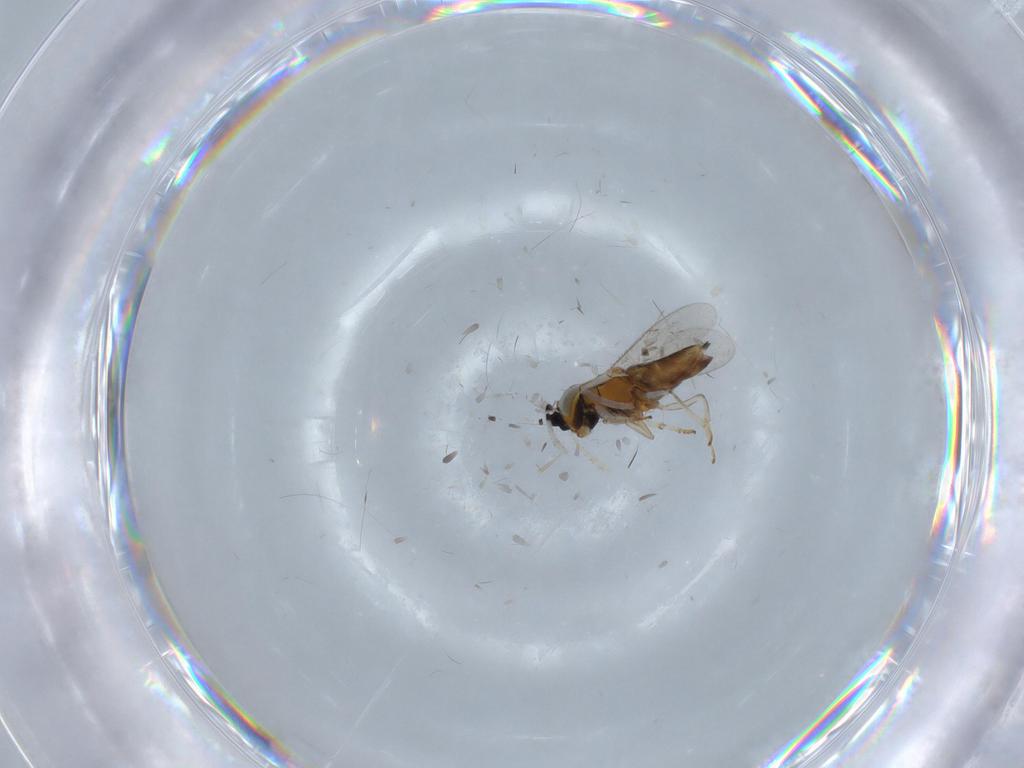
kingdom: Animalia
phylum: Arthropoda
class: Insecta
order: Hymenoptera
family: Encyrtidae
